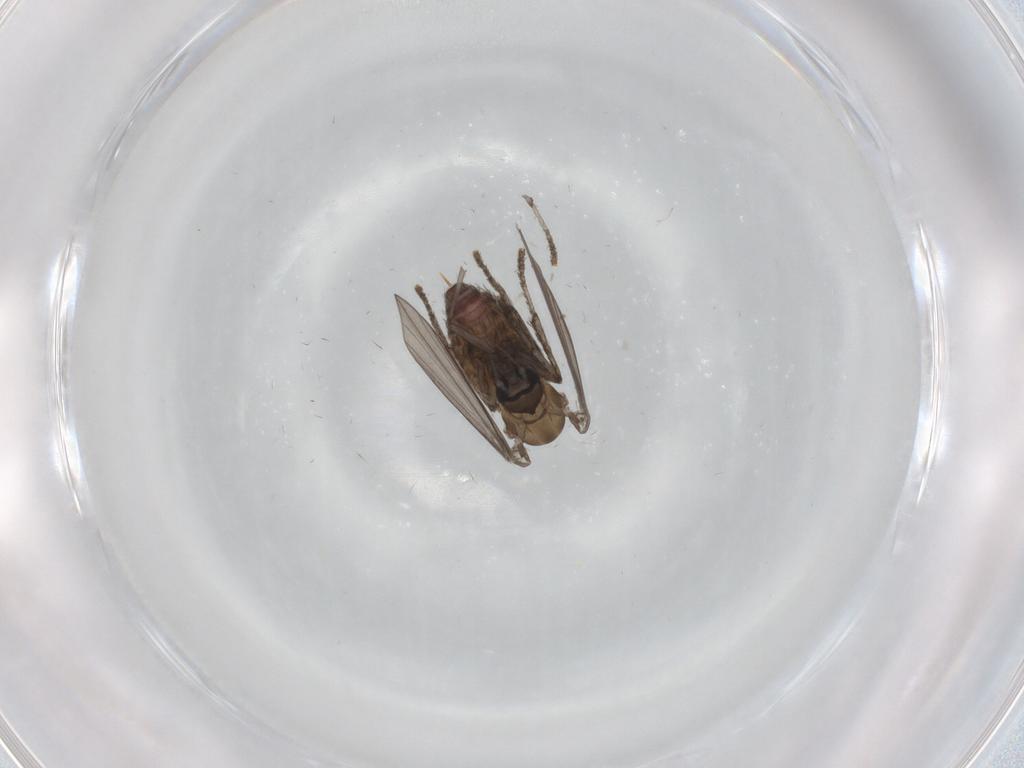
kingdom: Animalia
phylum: Arthropoda
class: Insecta
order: Diptera
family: Psychodidae
